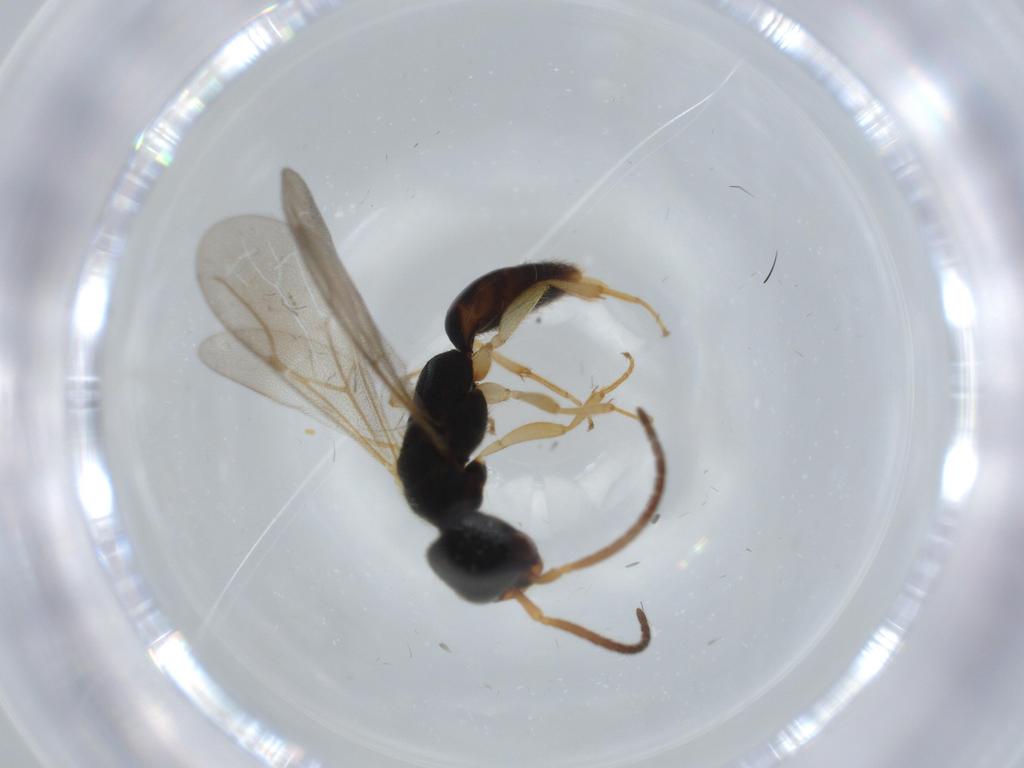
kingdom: Animalia
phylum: Arthropoda
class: Insecta
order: Hymenoptera
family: Bethylidae
